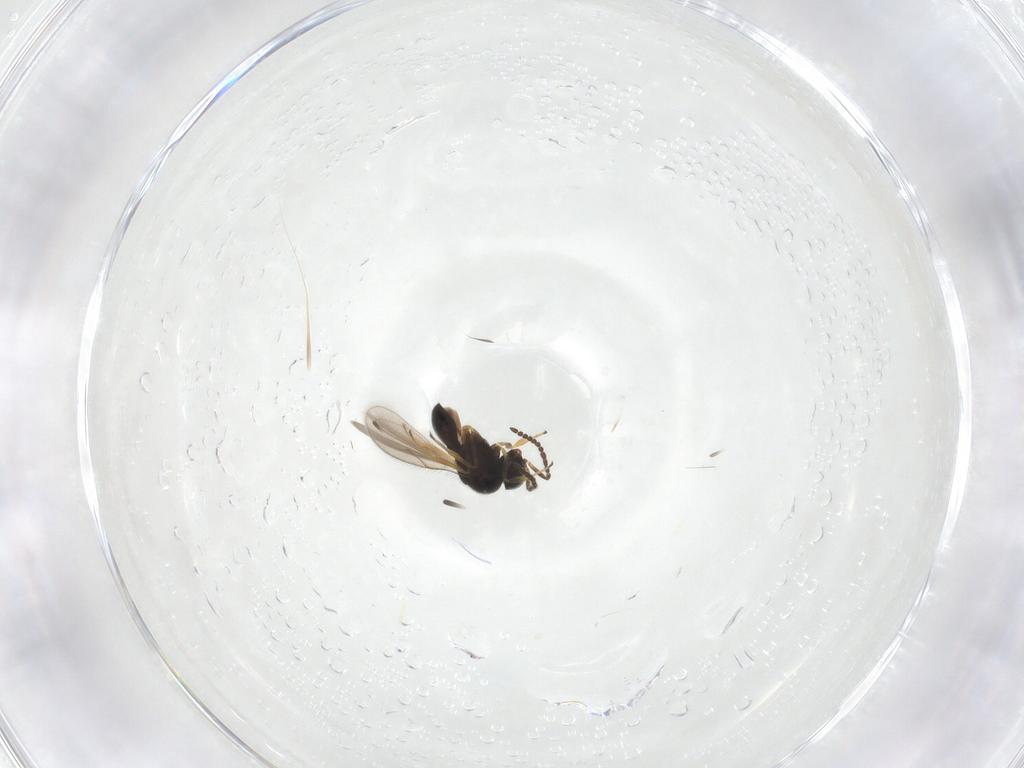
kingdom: Animalia
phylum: Arthropoda
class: Insecta
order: Hymenoptera
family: Scelionidae
